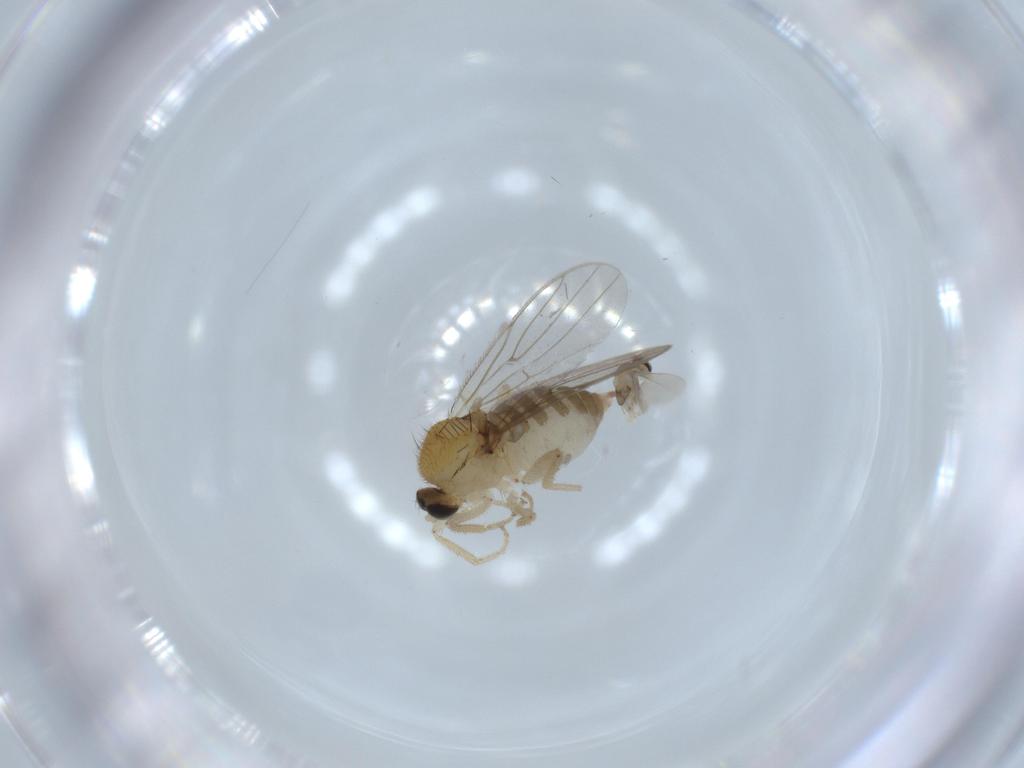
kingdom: Animalia
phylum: Arthropoda
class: Insecta
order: Diptera
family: Hybotidae
